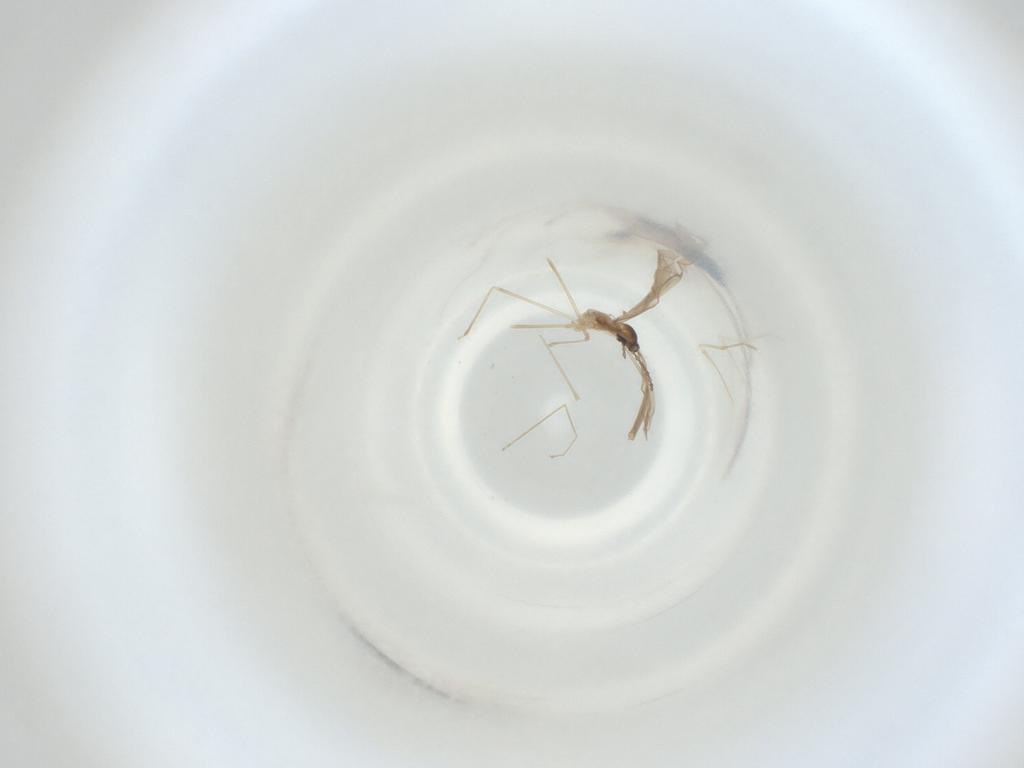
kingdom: Animalia
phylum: Arthropoda
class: Insecta
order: Diptera
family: Cecidomyiidae
